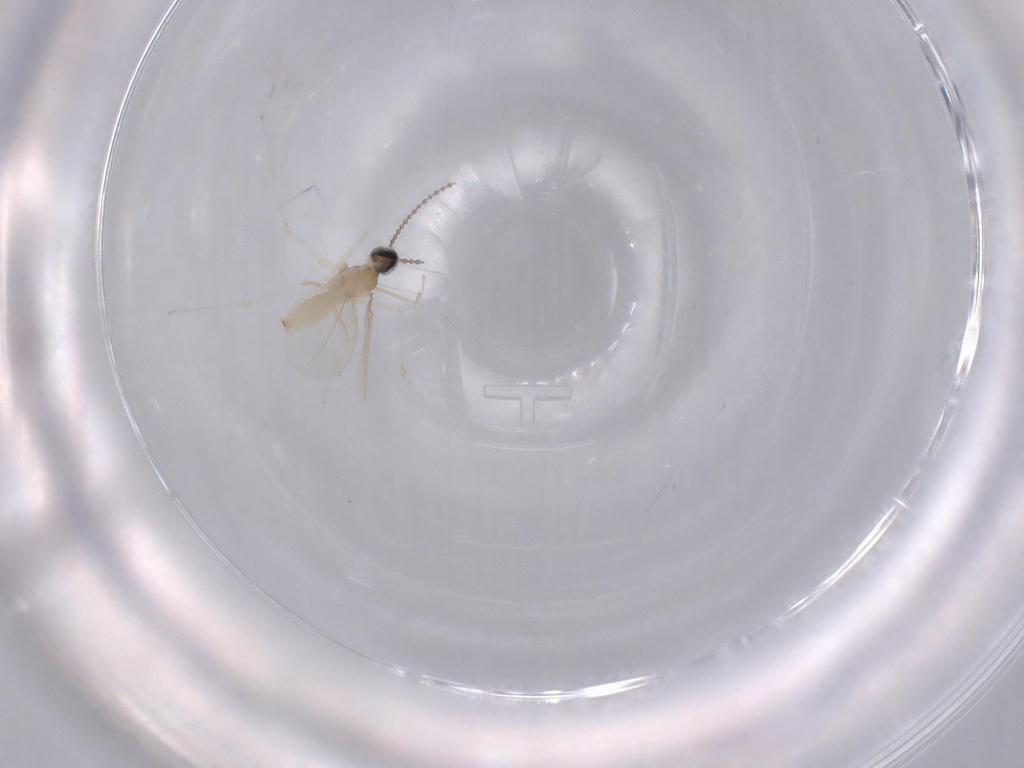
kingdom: Animalia
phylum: Arthropoda
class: Insecta
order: Diptera
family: Cecidomyiidae
